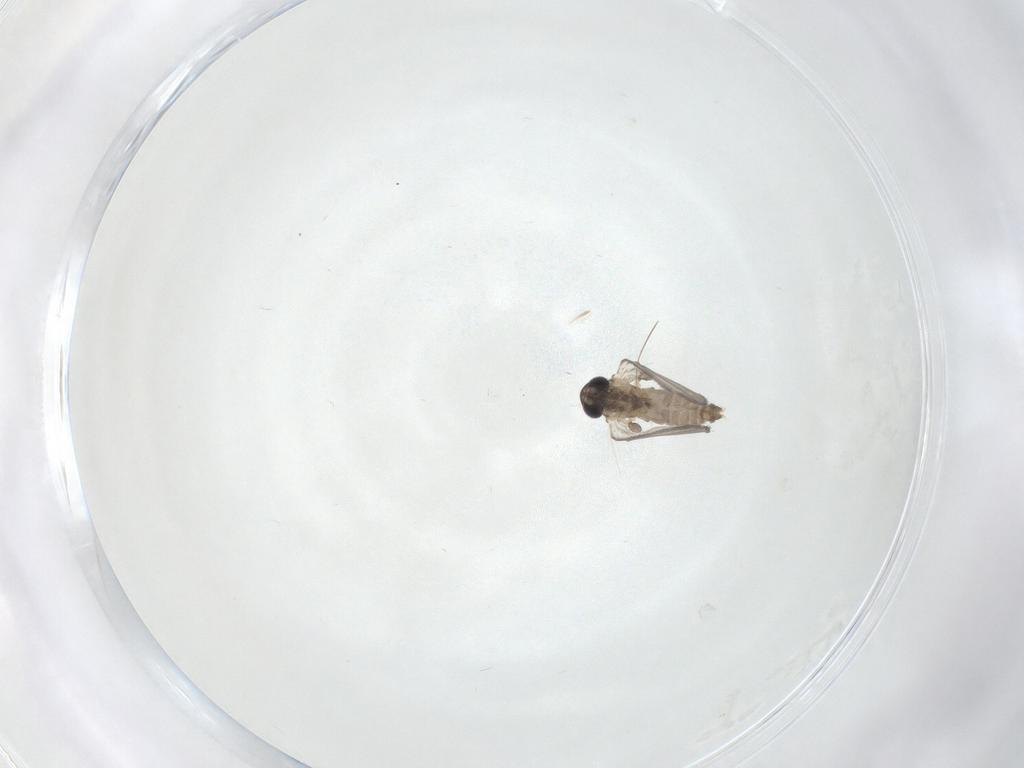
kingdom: Animalia
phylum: Arthropoda
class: Insecta
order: Diptera
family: Psychodidae
